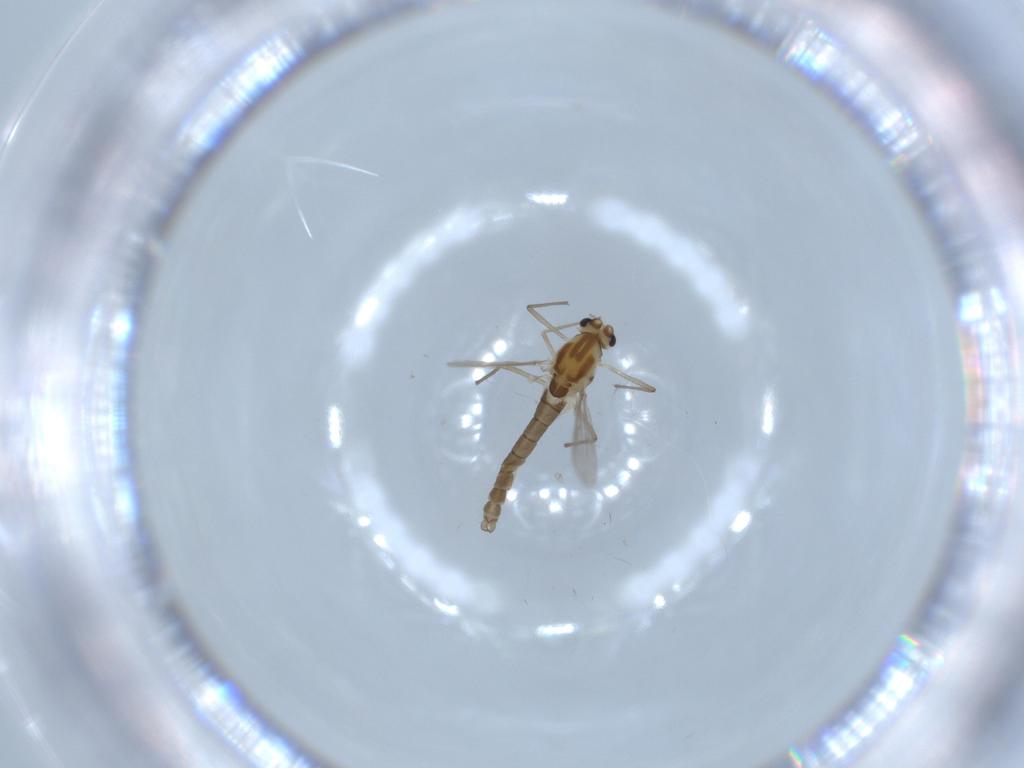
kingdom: Animalia
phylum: Arthropoda
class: Insecta
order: Diptera
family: Chironomidae
